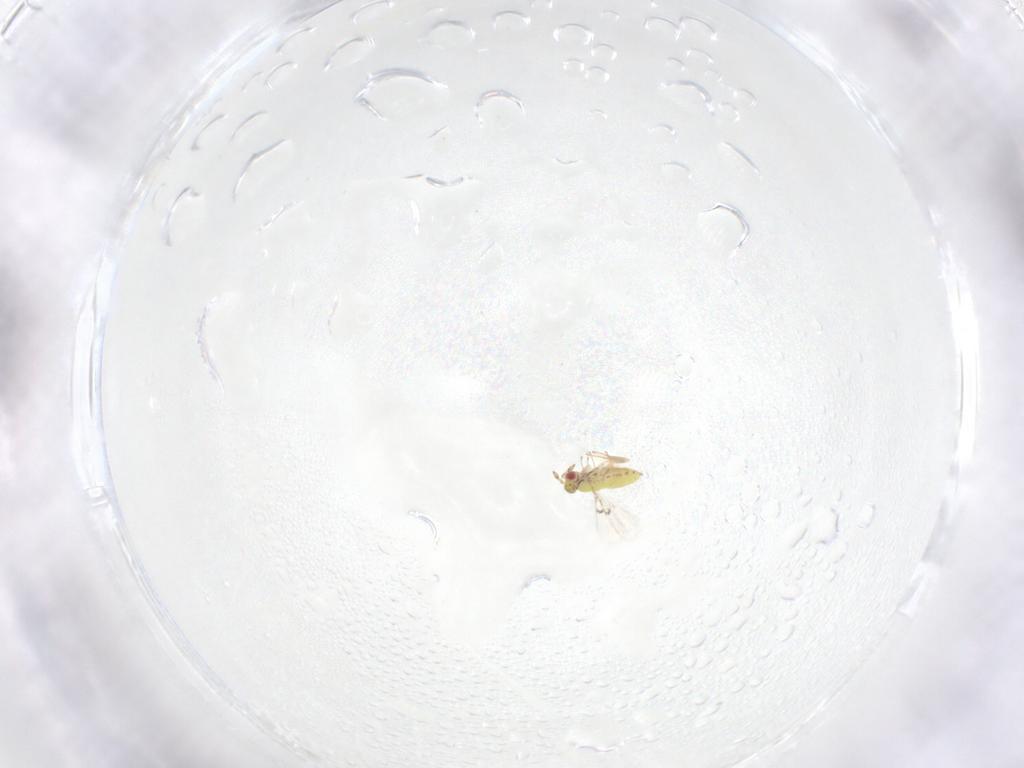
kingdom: Animalia
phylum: Arthropoda
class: Insecta
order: Hymenoptera
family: Trichogrammatidae
